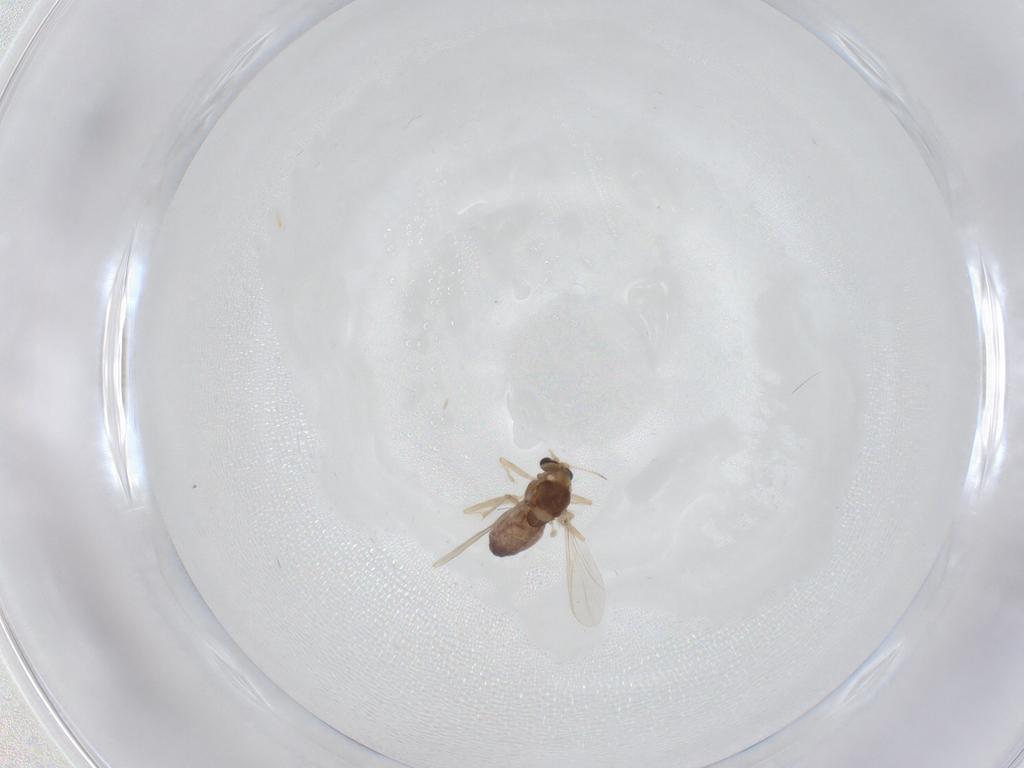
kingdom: Animalia
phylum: Arthropoda
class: Insecta
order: Diptera
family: Chironomidae
